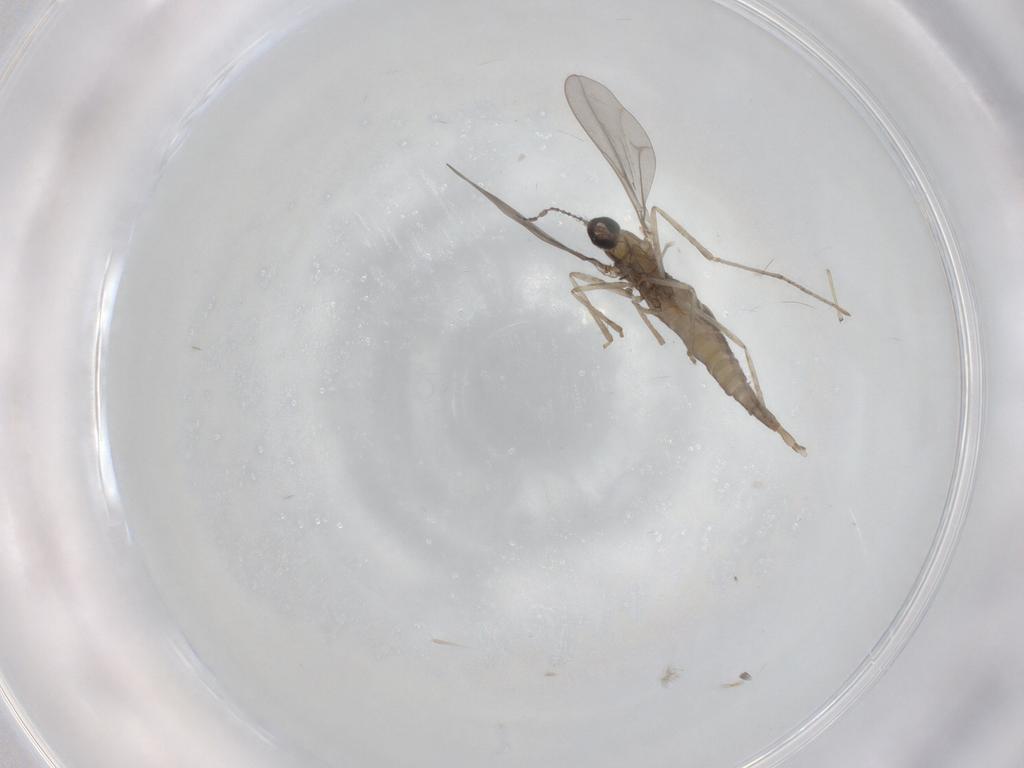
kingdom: Animalia
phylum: Arthropoda
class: Insecta
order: Diptera
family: Cecidomyiidae
